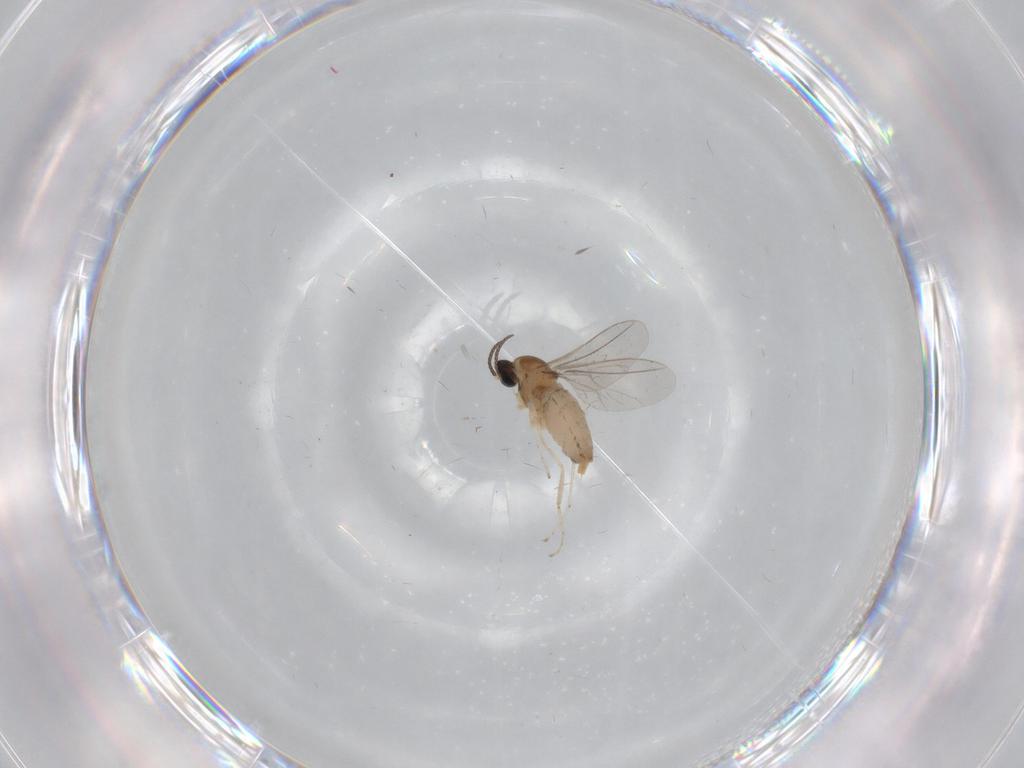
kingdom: Animalia
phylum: Arthropoda
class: Insecta
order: Diptera
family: Cecidomyiidae
